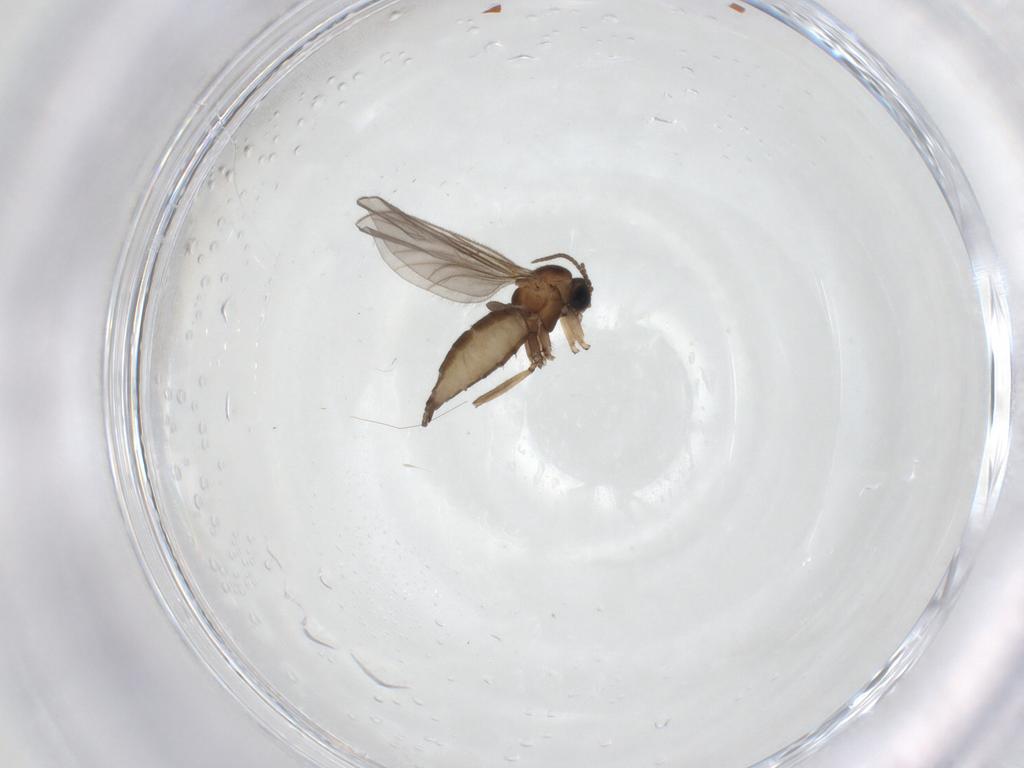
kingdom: Animalia
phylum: Arthropoda
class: Insecta
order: Diptera
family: Sciaridae
